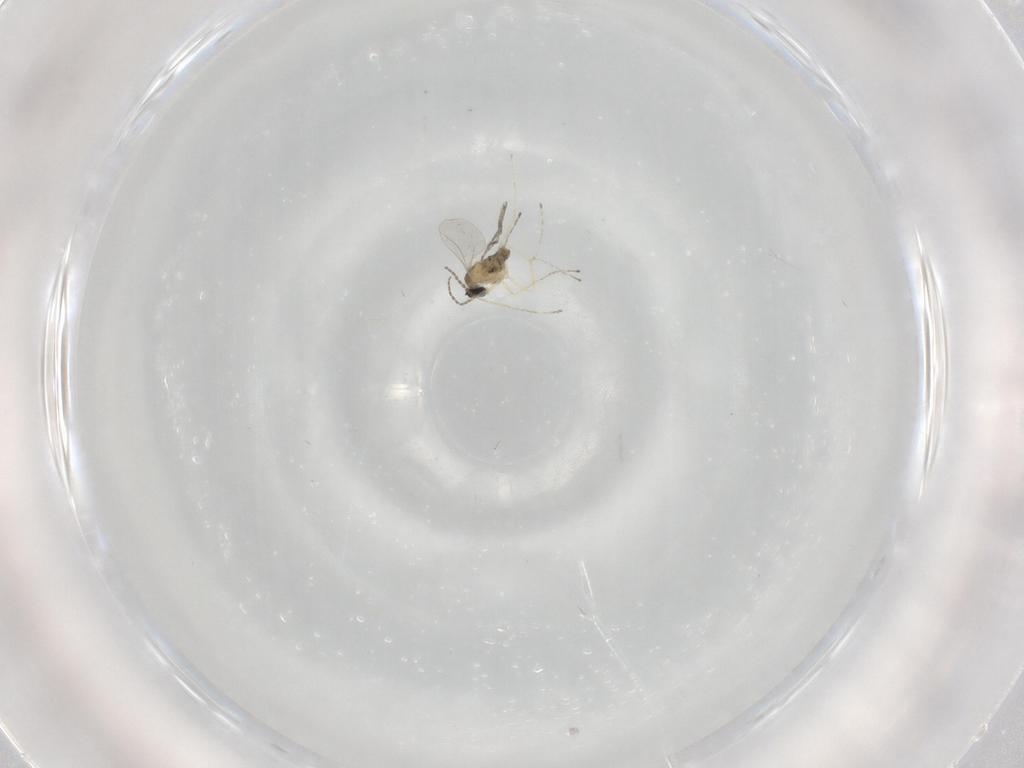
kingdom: Animalia
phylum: Arthropoda
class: Insecta
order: Diptera
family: Cecidomyiidae
